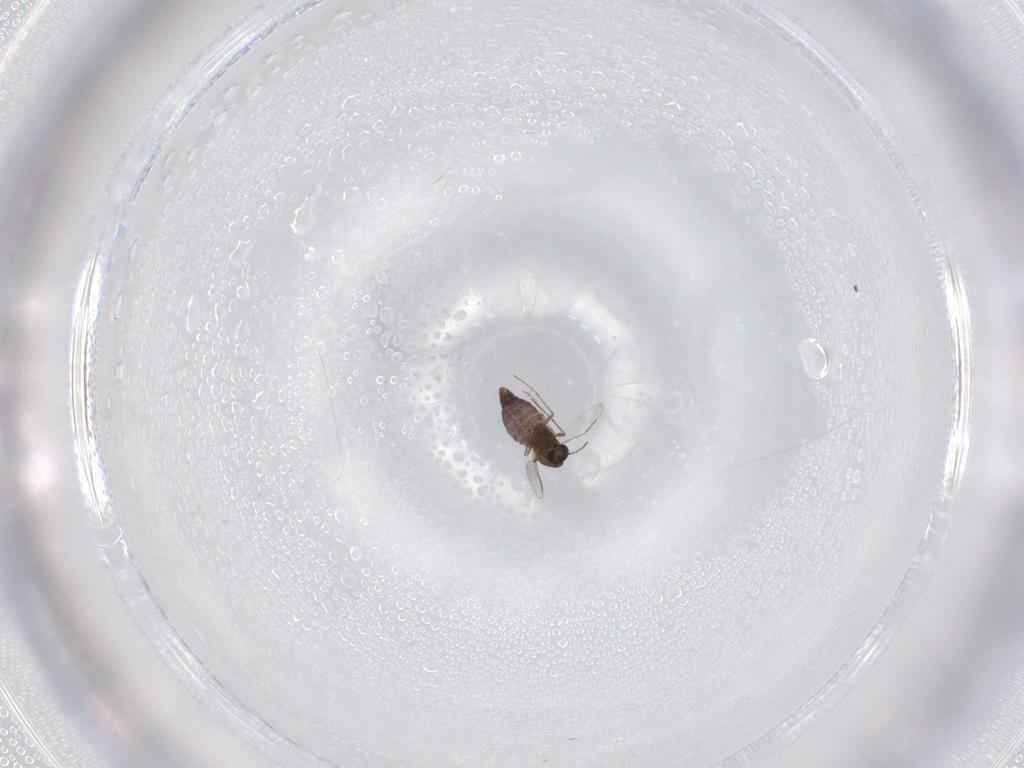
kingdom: Animalia
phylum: Arthropoda
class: Insecta
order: Diptera
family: Chironomidae
